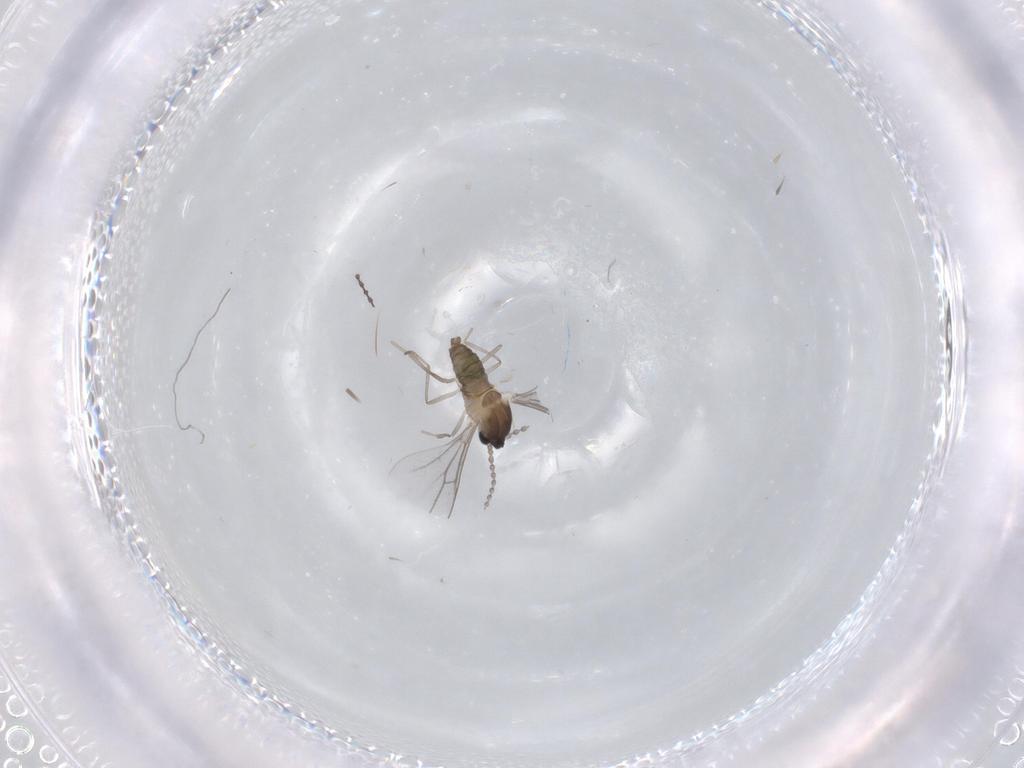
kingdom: Animalia
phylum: Arthropoda
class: Insecta
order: Diptera
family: Cecidomyiidae
